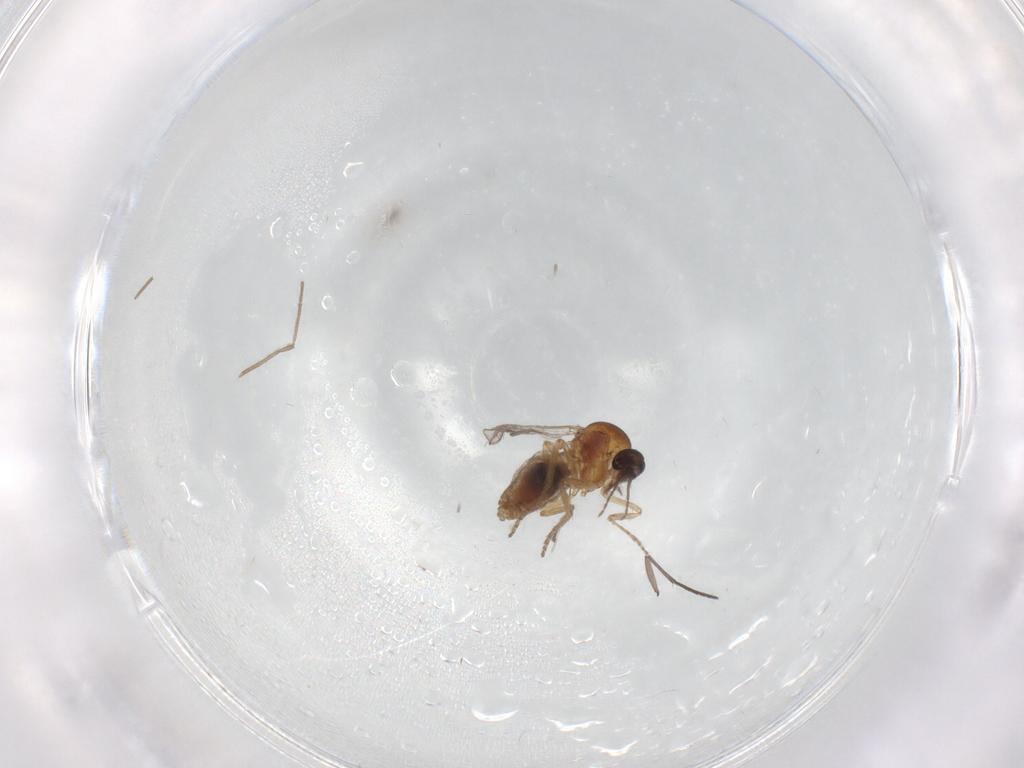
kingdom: Animalia
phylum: Arthropoda
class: Insecta
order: Diptera
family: Ceratopogonidae
